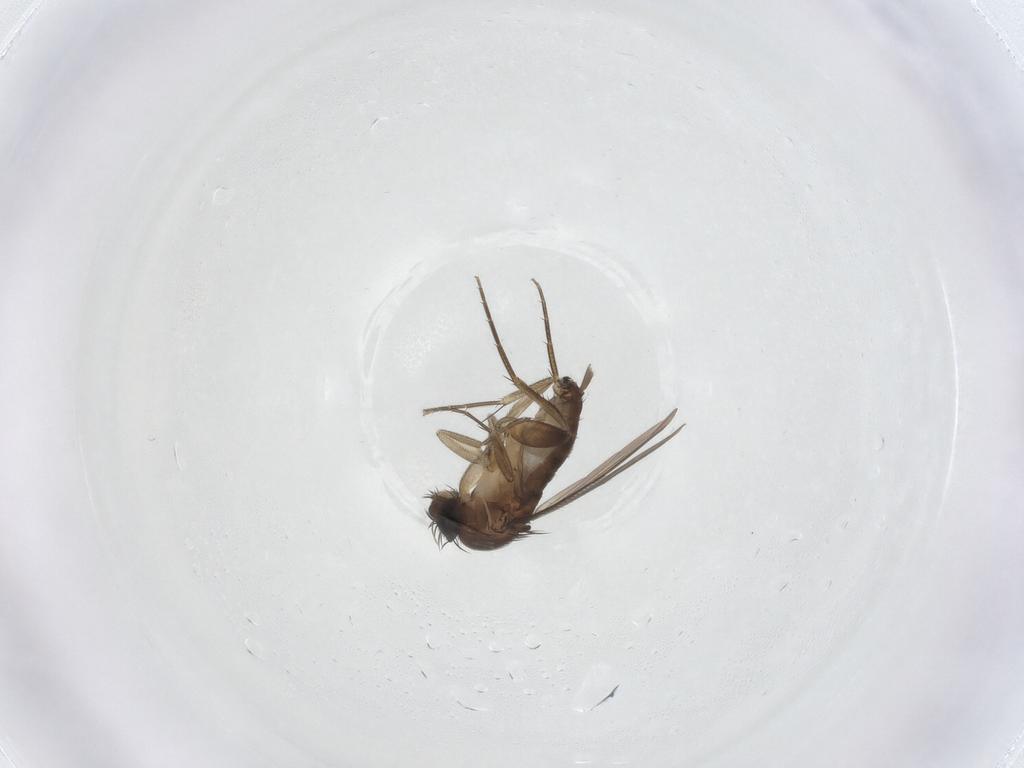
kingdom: Animalia
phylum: Arthropoda
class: Insecta
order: Diptera
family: Phoridae
